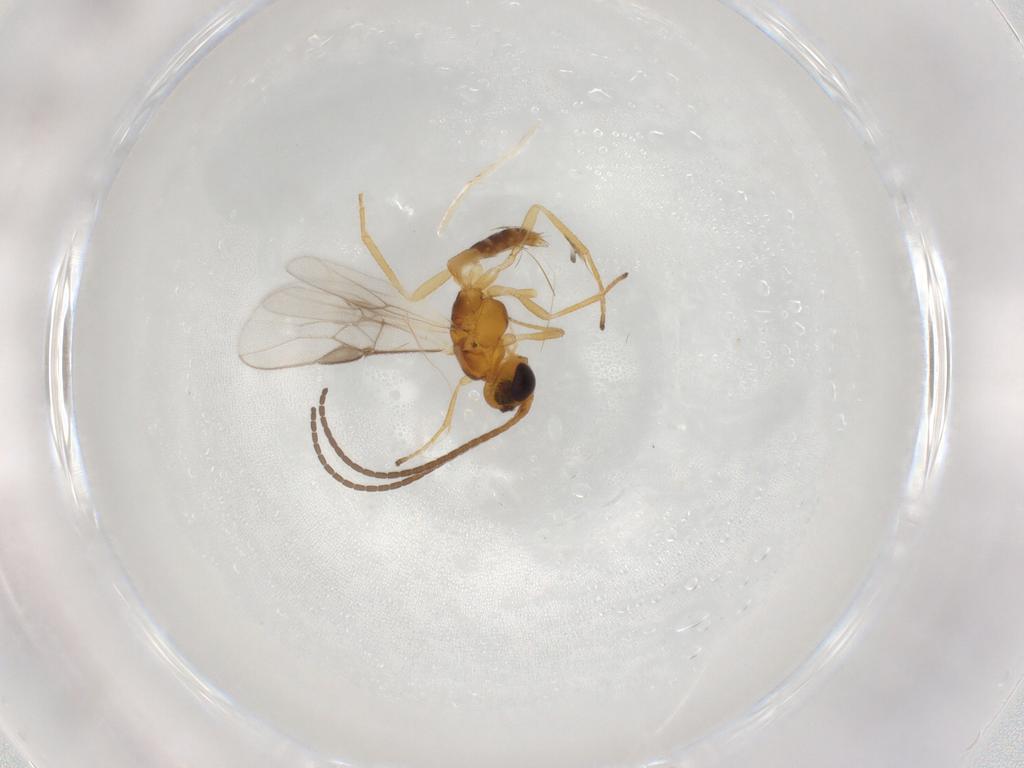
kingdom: Animalia
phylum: Arthropoda
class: Insecta
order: Hymenoptera
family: Braconidae
